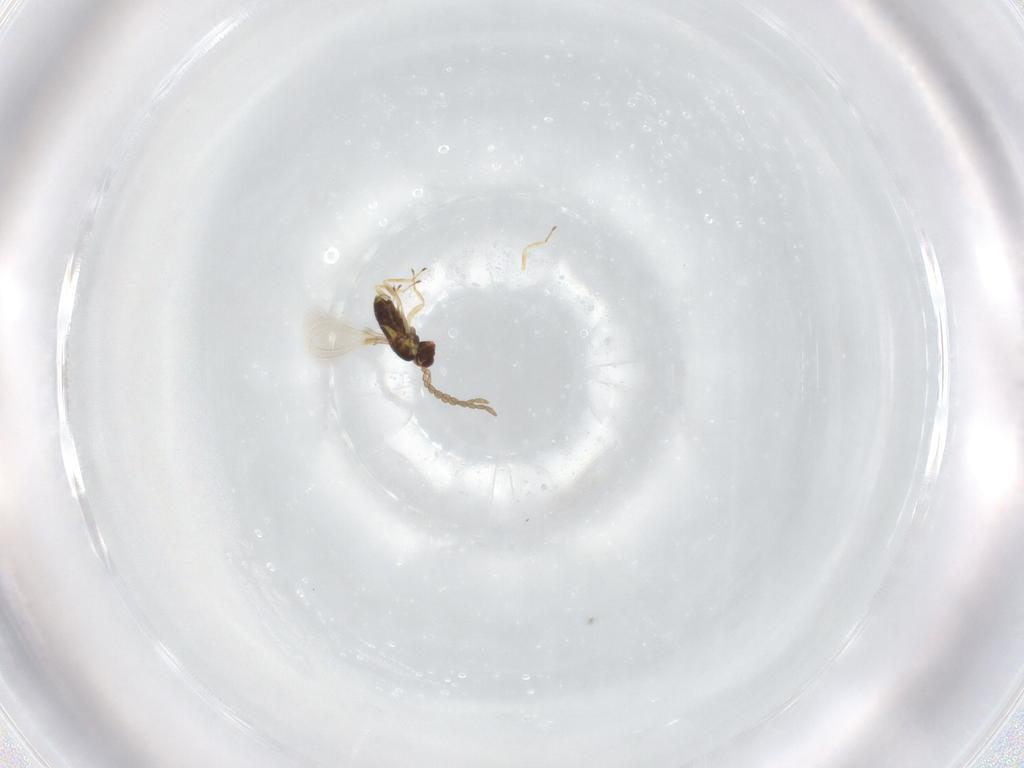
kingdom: Animalia
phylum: Arthropoda
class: Insecta
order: Hymenoptera
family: Mymaridae
